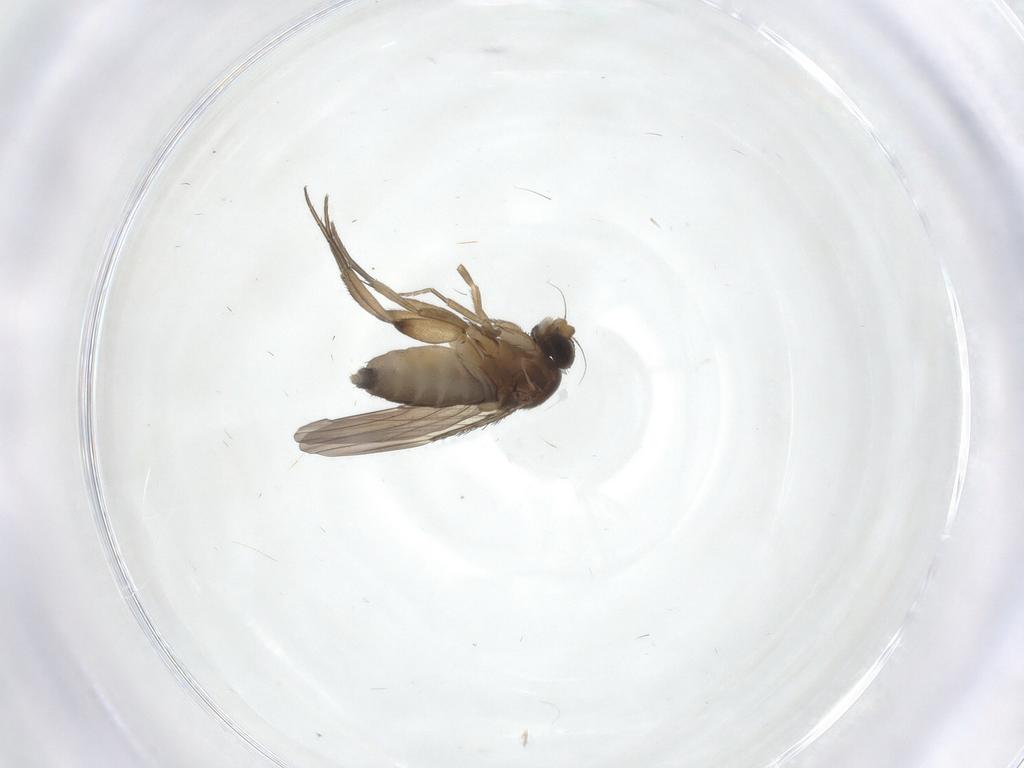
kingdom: Animalia
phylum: Arthropoda
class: Insecta
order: Diptera
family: Phoridae
